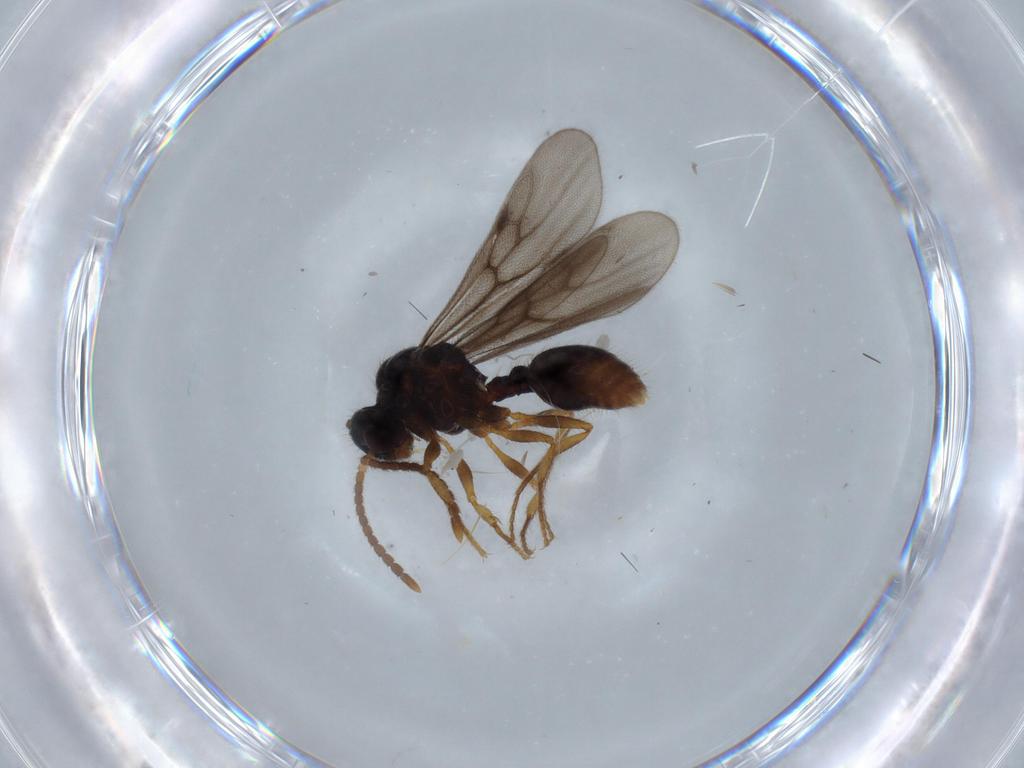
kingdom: Animalia
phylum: Arthropoda
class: Insecta
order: Hymenoptera
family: Formicidae
